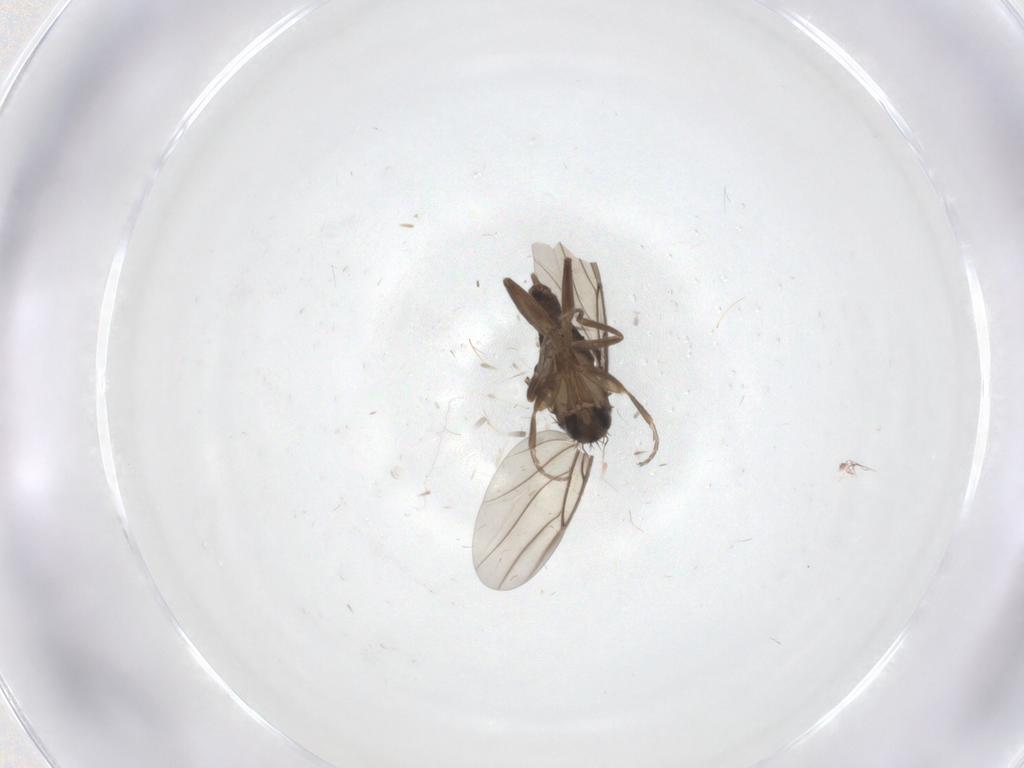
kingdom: Animalia
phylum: Arthropoda
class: Insecta
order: Diptera
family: Phoridae
